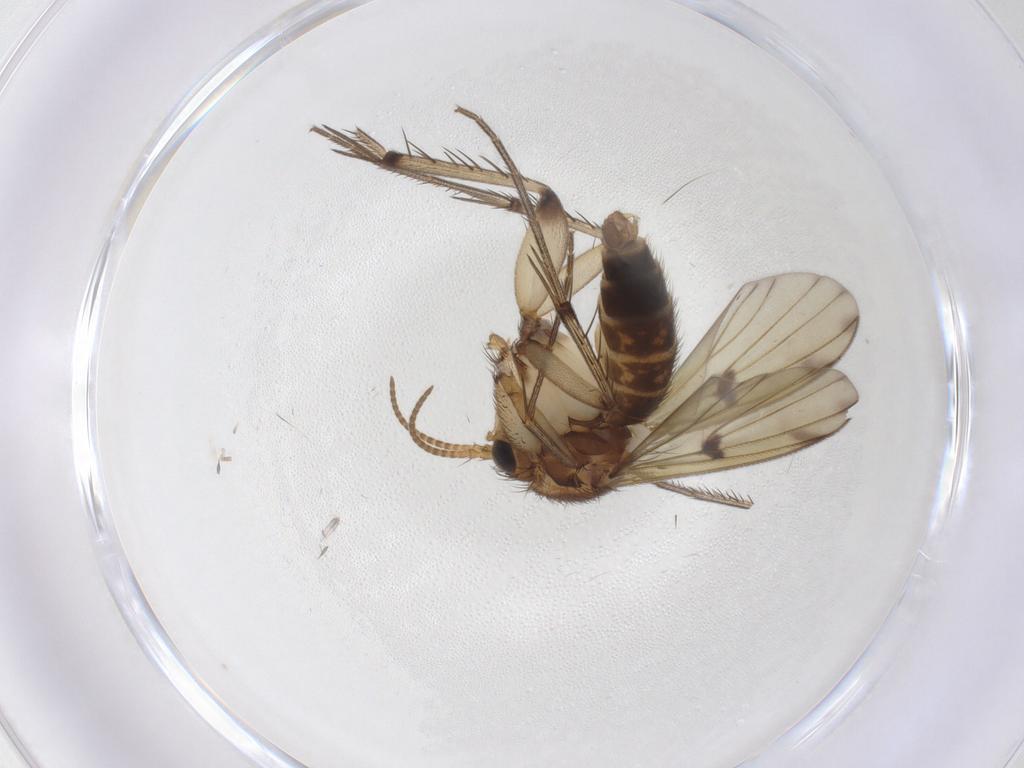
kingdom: Animalia
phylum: Arthropoda
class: Insecta
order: Diptera
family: Mycetophilidae
